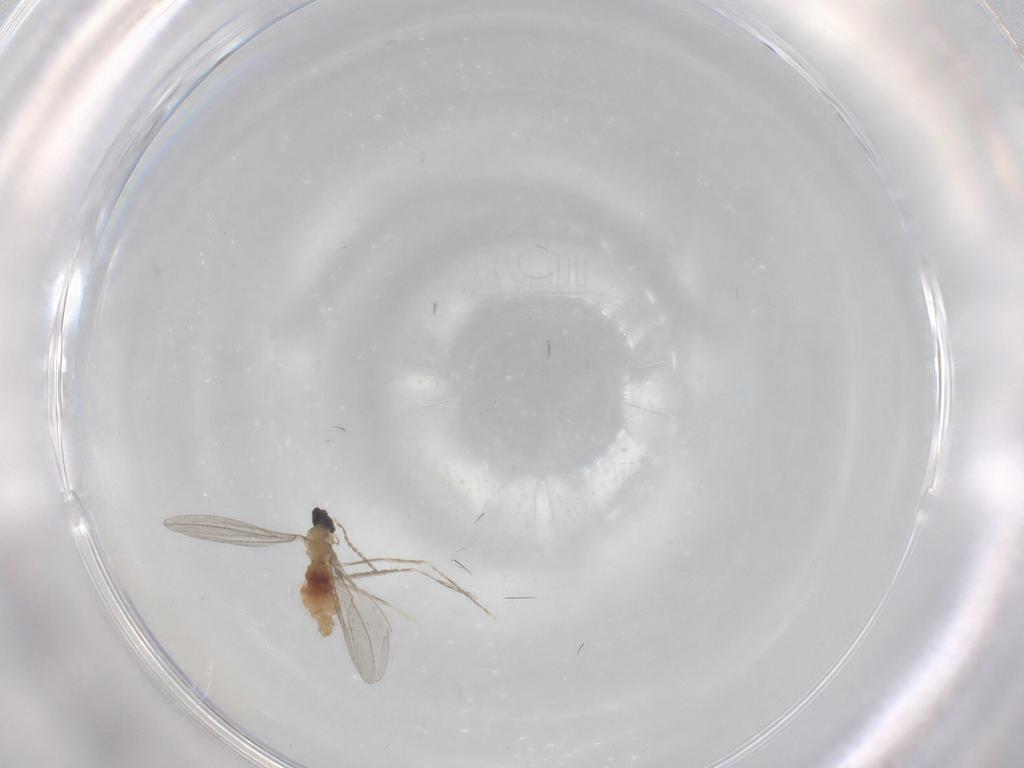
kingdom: Animalia
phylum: Arthropoda
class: Insecta
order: Diptera
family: Cecidomyiidae
